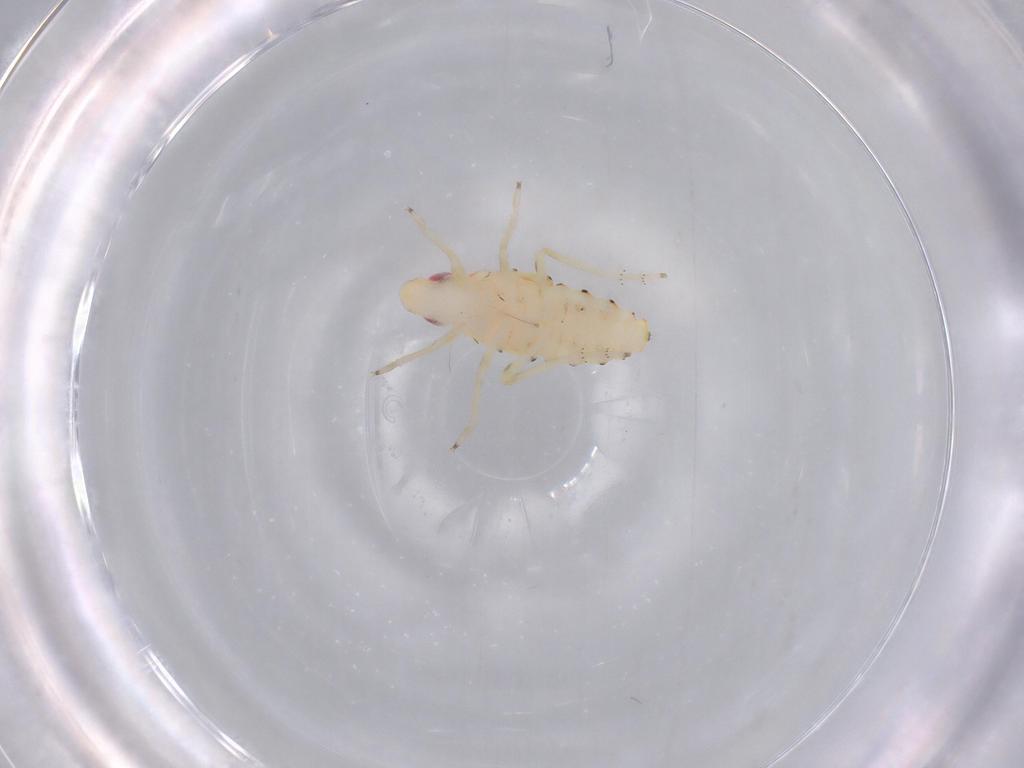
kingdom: Animalia
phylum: Arthropoda
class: Insecta
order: Hemiptera
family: Tropiduchidae
